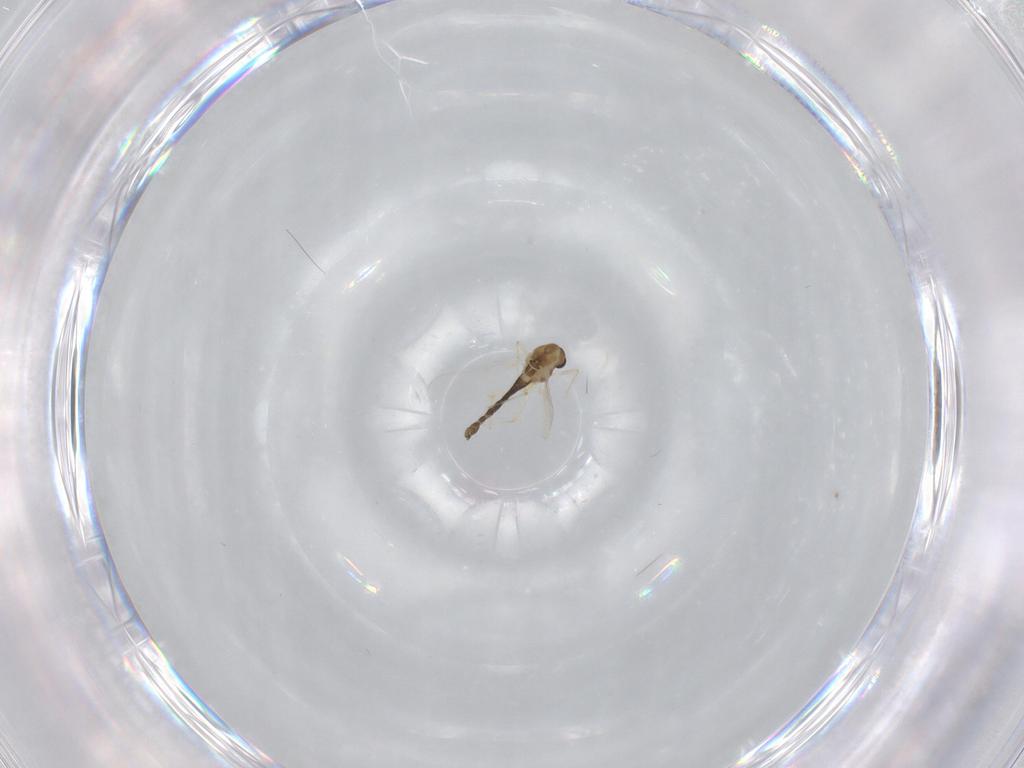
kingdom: Animalia
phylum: Arthropoda
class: Insecta
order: Diptera
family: Chironomidae
